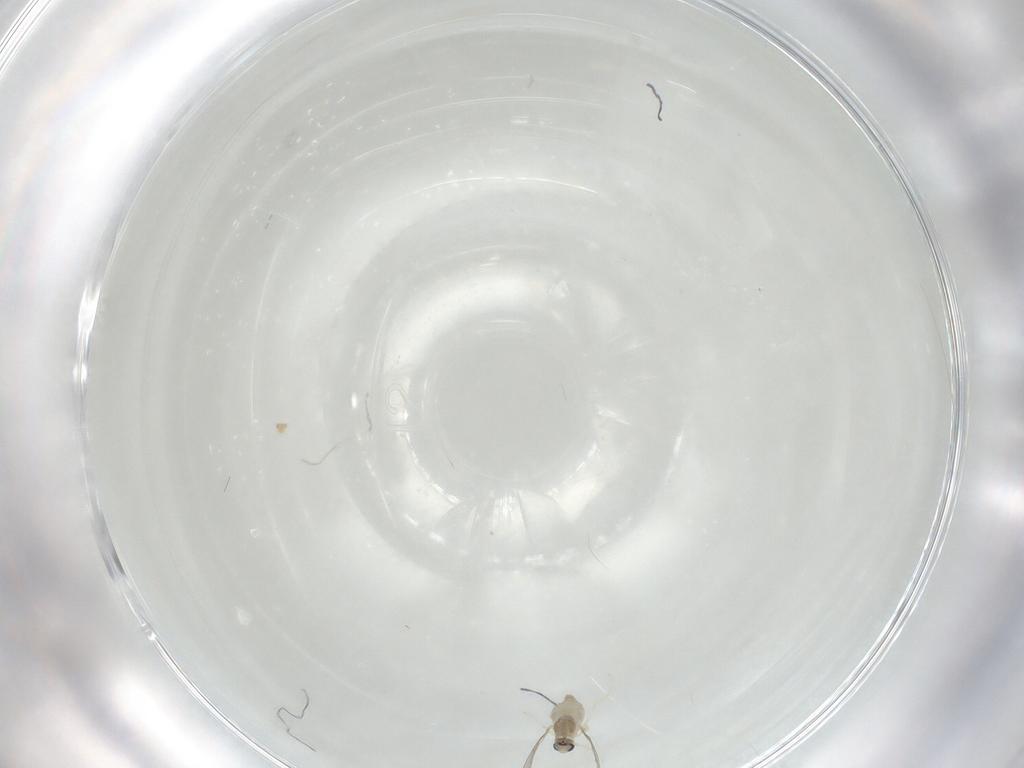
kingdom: Animalia
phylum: Arthropoda
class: Insecta
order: Diptera
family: Cecidomyiidae
